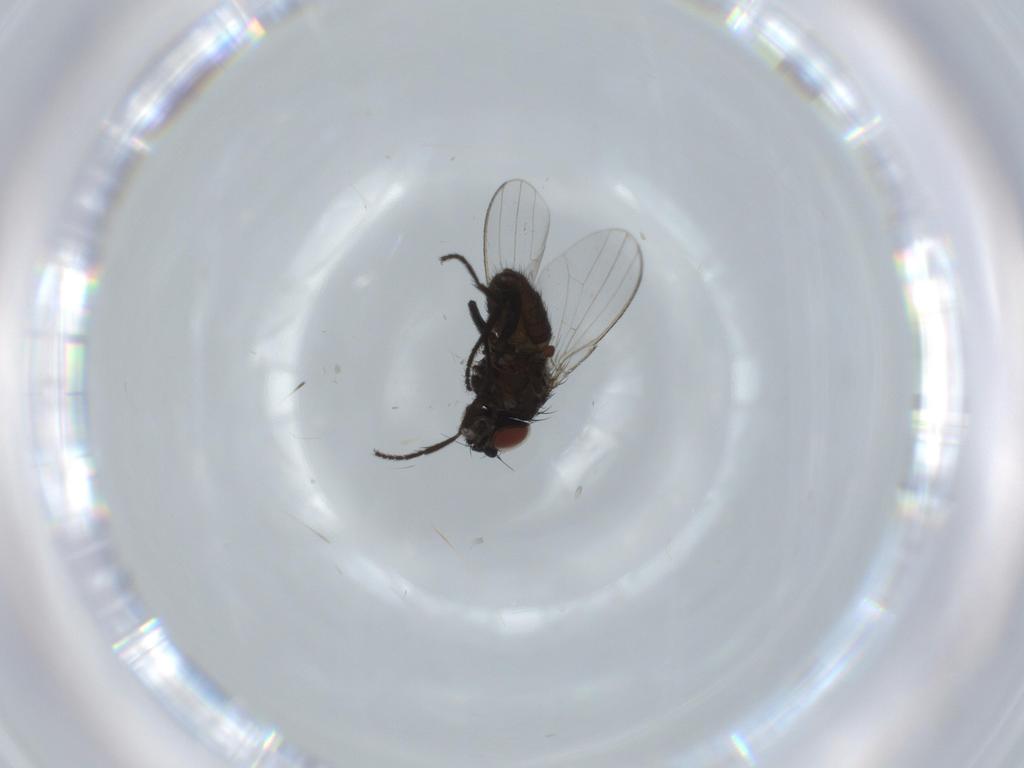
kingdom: Animalia
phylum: Arthropoda
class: Insecta
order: Diptera
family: Milichiidae
